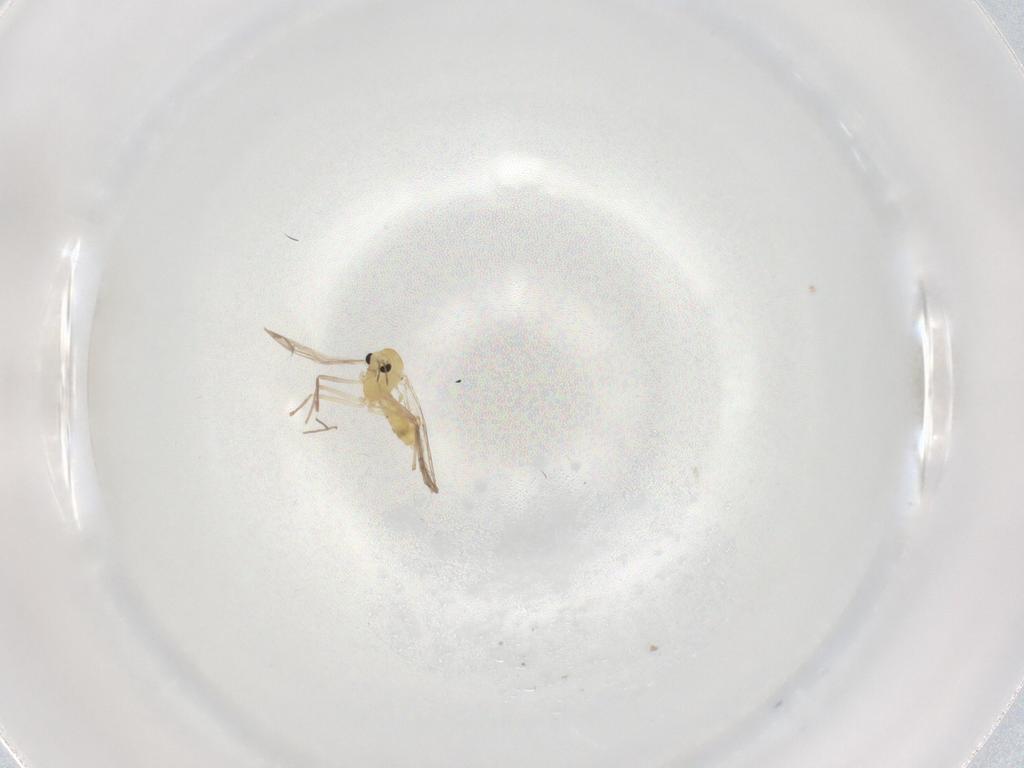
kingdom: Animalia
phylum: Arthropoda
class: Insecta
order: Diptera
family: Chironomidae
